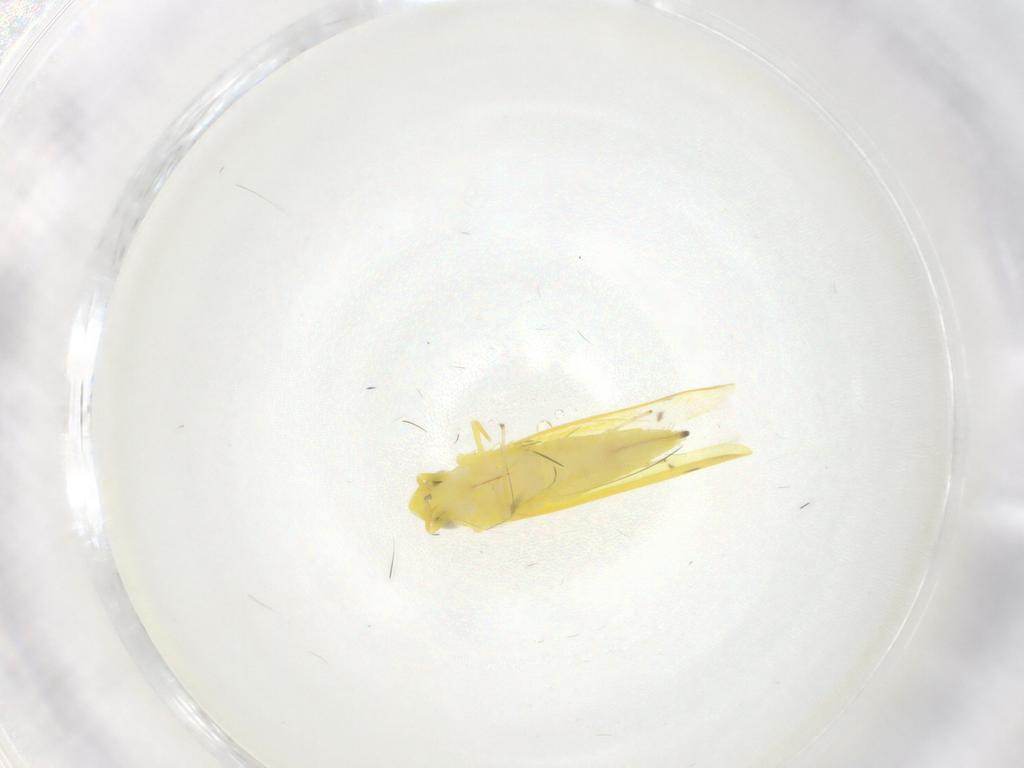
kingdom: Animalia
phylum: Arthropoda
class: Insecta
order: Hemiptera
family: Cicadellidae
